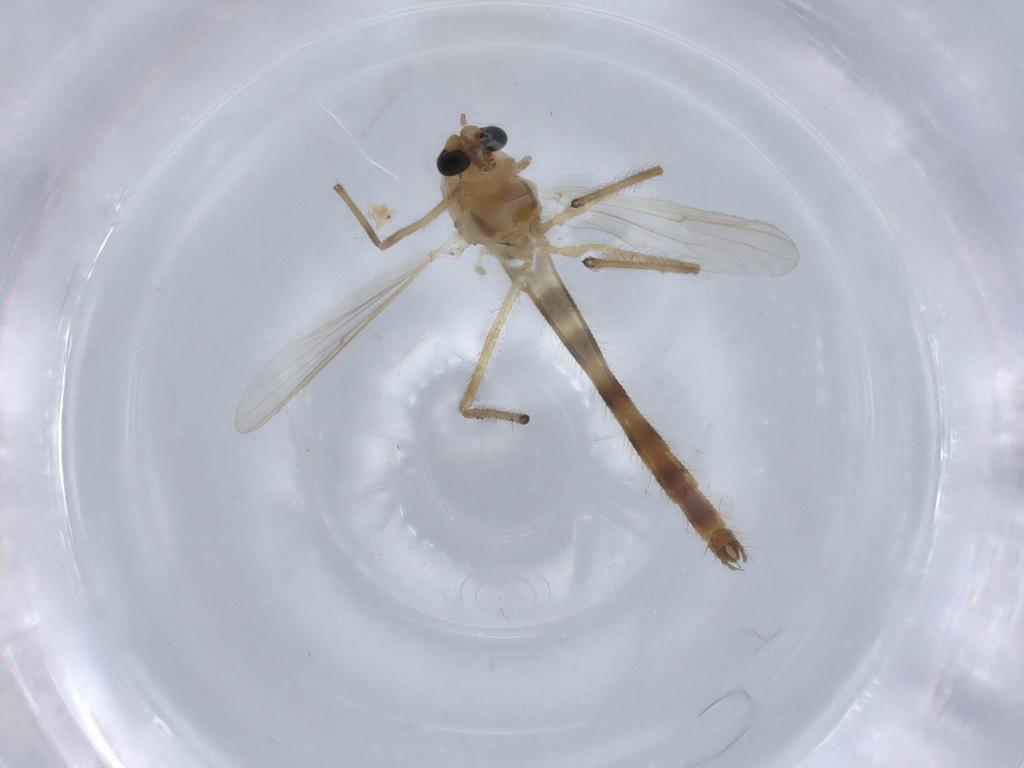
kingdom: Animalia
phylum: Arthropoda
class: Insecta
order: Diptera
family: Chironomidae
